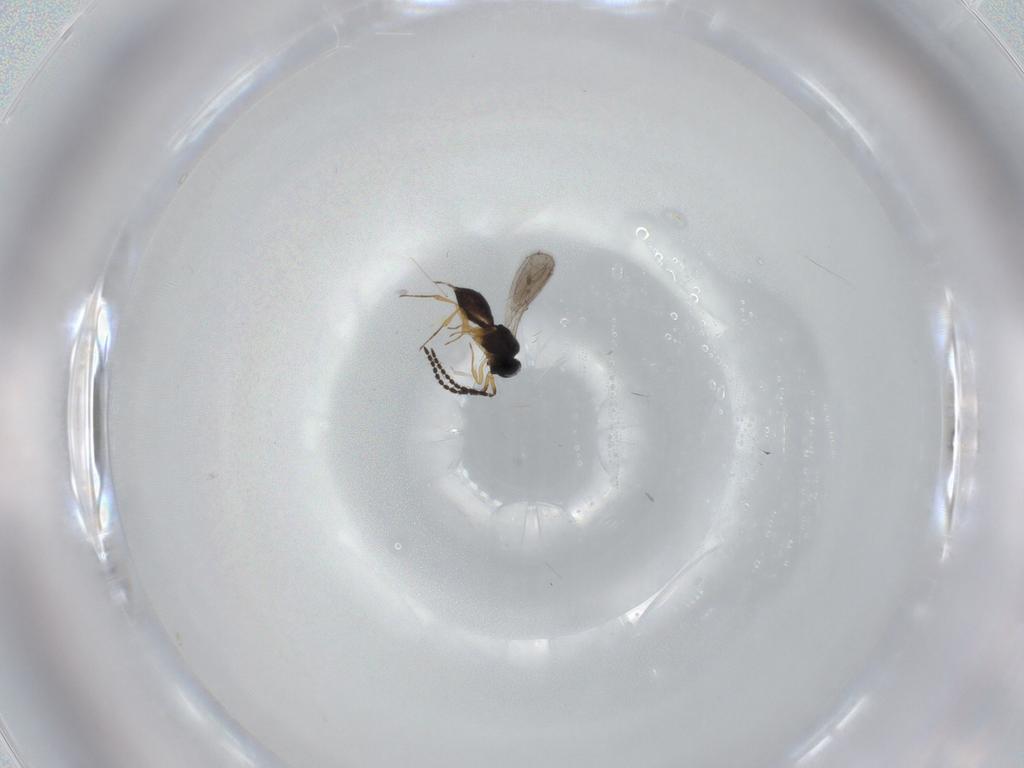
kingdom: Animalia
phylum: Arthropoda
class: Insecta
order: Hymenoptera
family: Scelionidae
